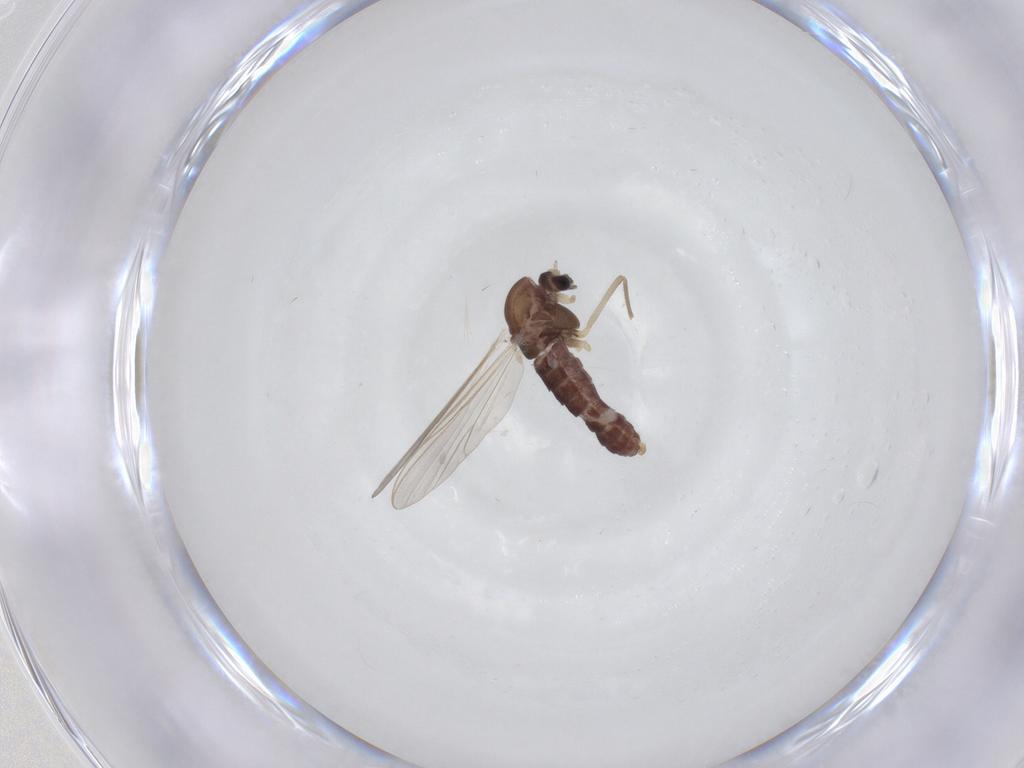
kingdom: Animalia
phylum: Arthropoda
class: Insecta
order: Diptera
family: Chironomidae
